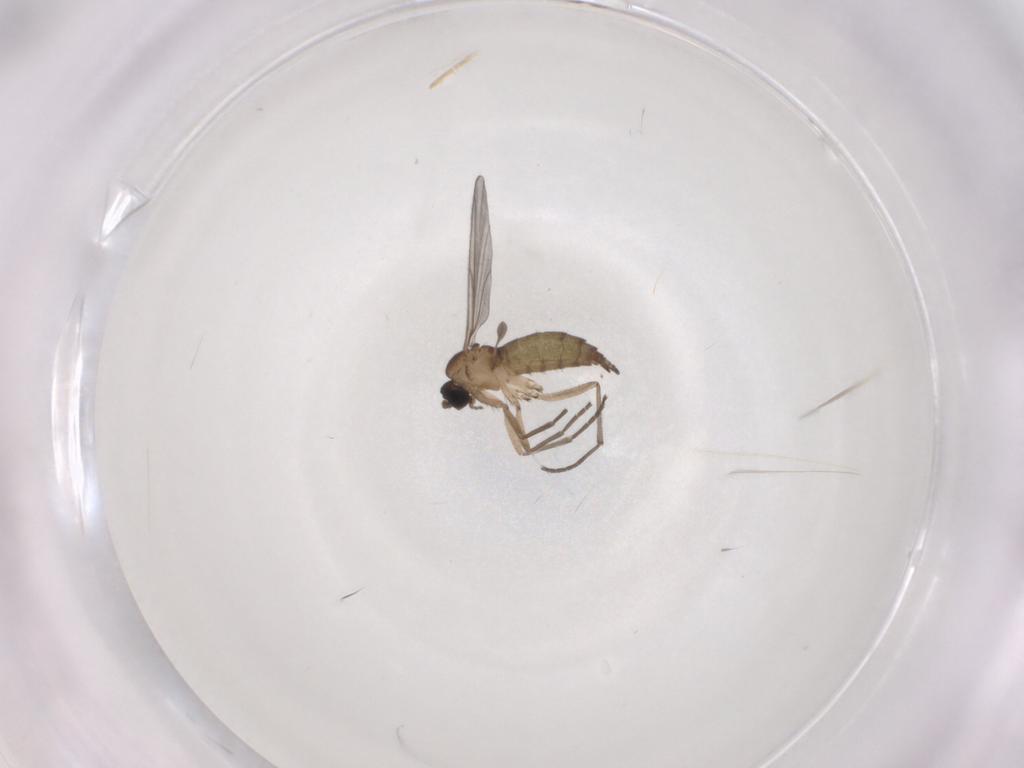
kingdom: Animalia
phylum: Arthropoda
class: Insecta
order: Diptera
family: Sciaridae
